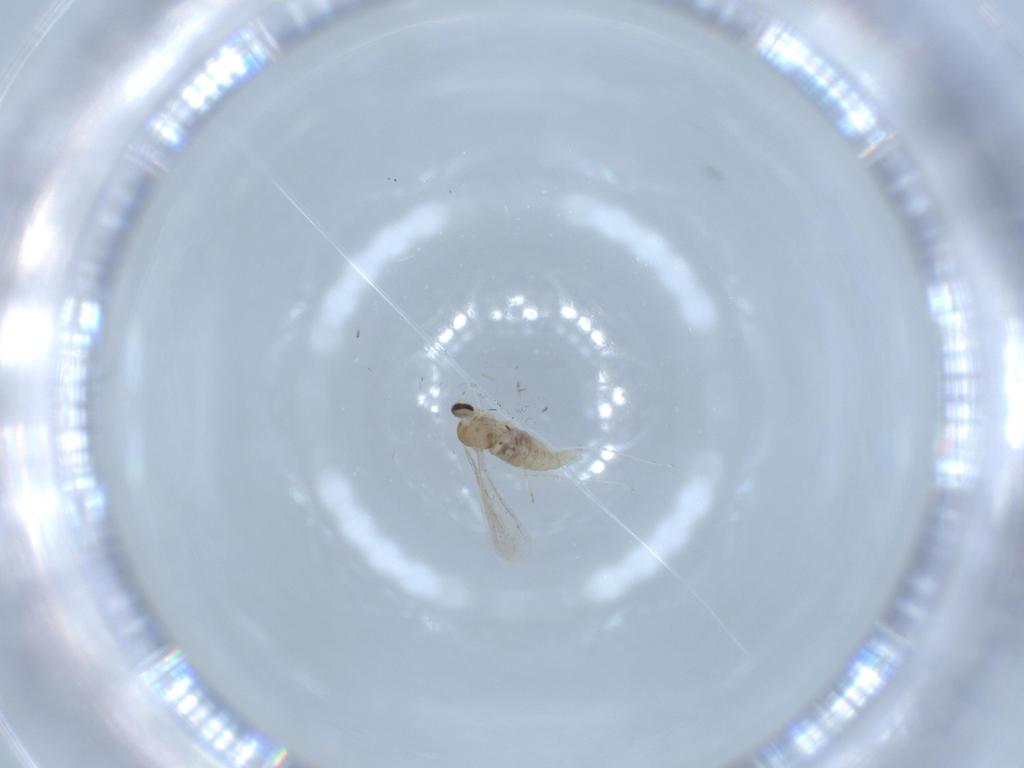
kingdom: Animalia
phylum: Arthropoda
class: Insecta
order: Diptera
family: Cecidomyiidae
